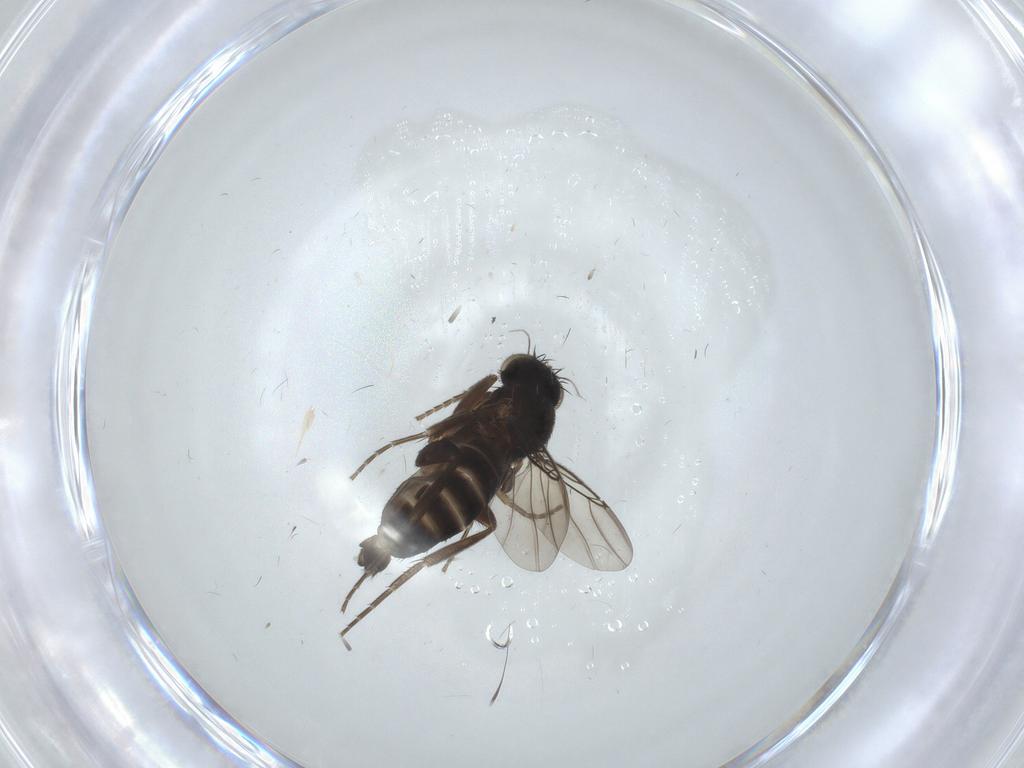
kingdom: Animalia
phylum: Arthropoda
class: Insecta
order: Diptera
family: Phoridae
